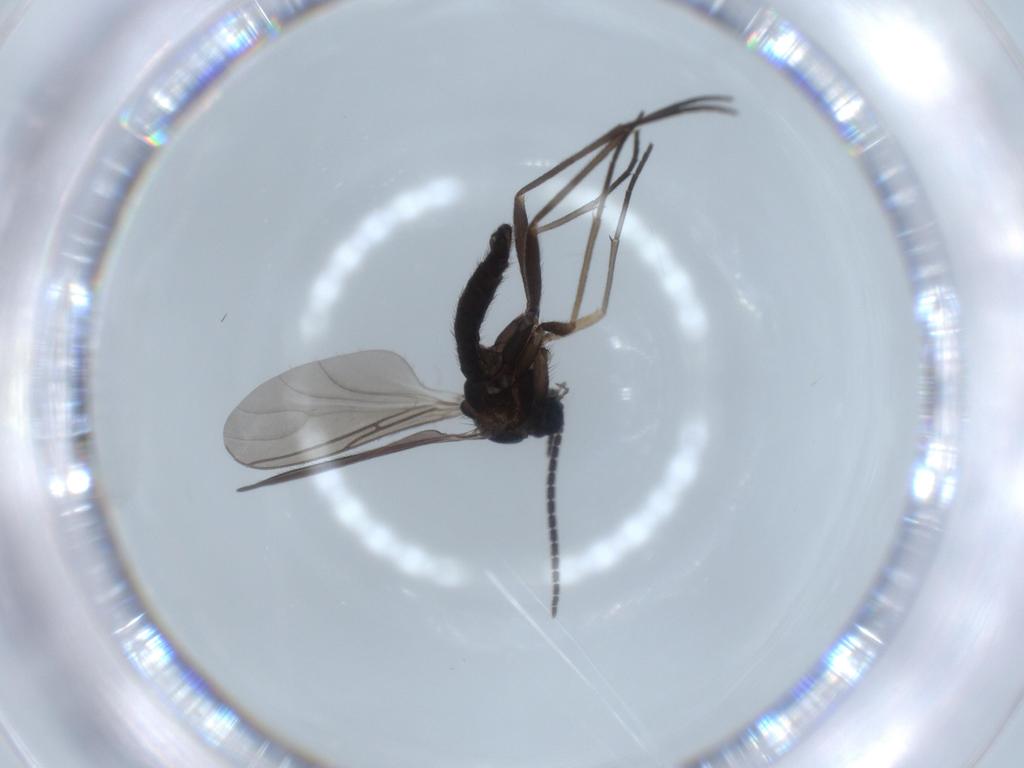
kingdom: Animalia
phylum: Arthropoda
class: Insecta
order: Diptera
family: Sciaridae
